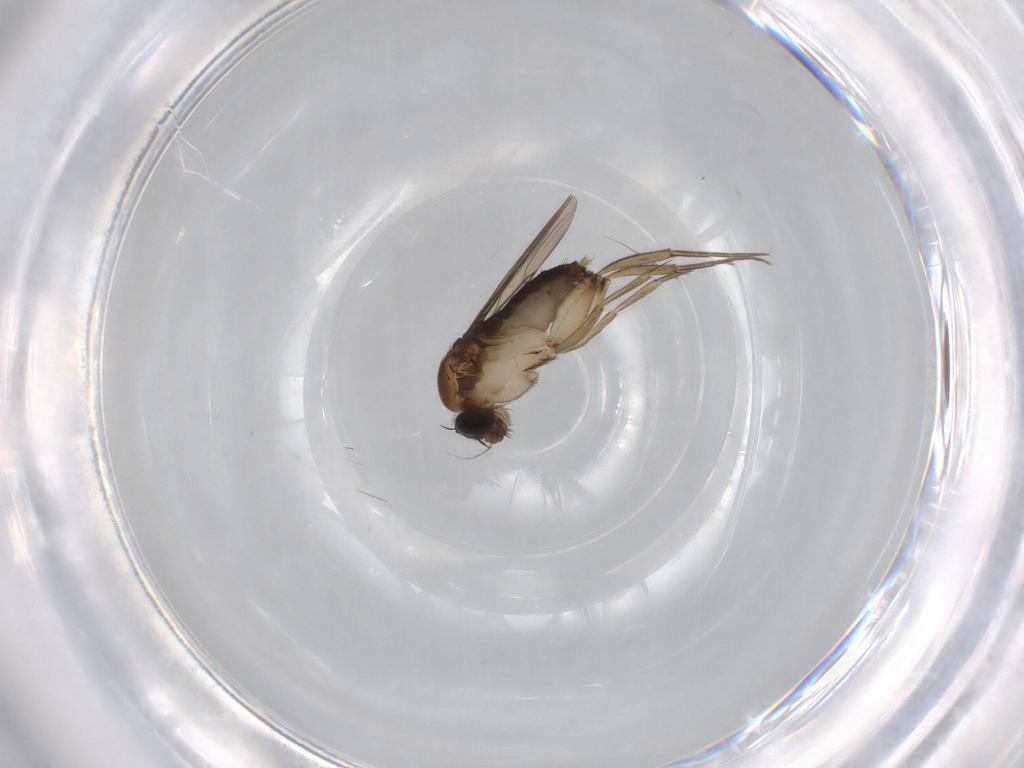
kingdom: Animalia
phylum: Arthropoda
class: Insecta
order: Diptera
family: Phoridae
